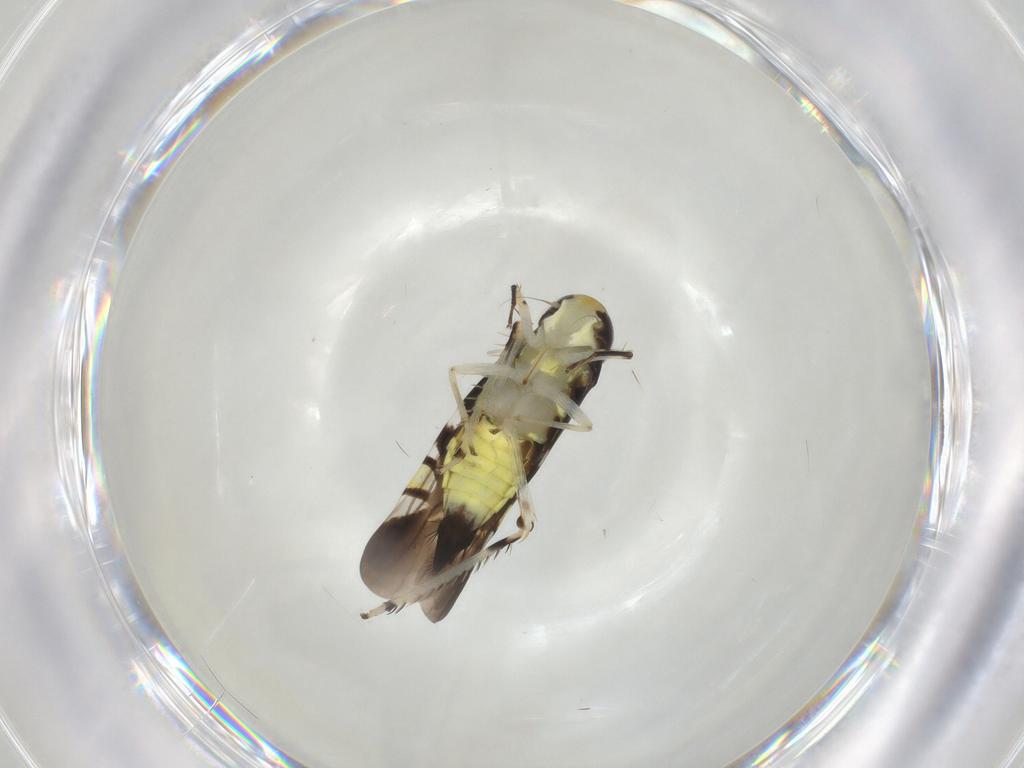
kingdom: Animalia
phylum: Arthropoda
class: Insecta
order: Hemiptera
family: Cicadellidae
